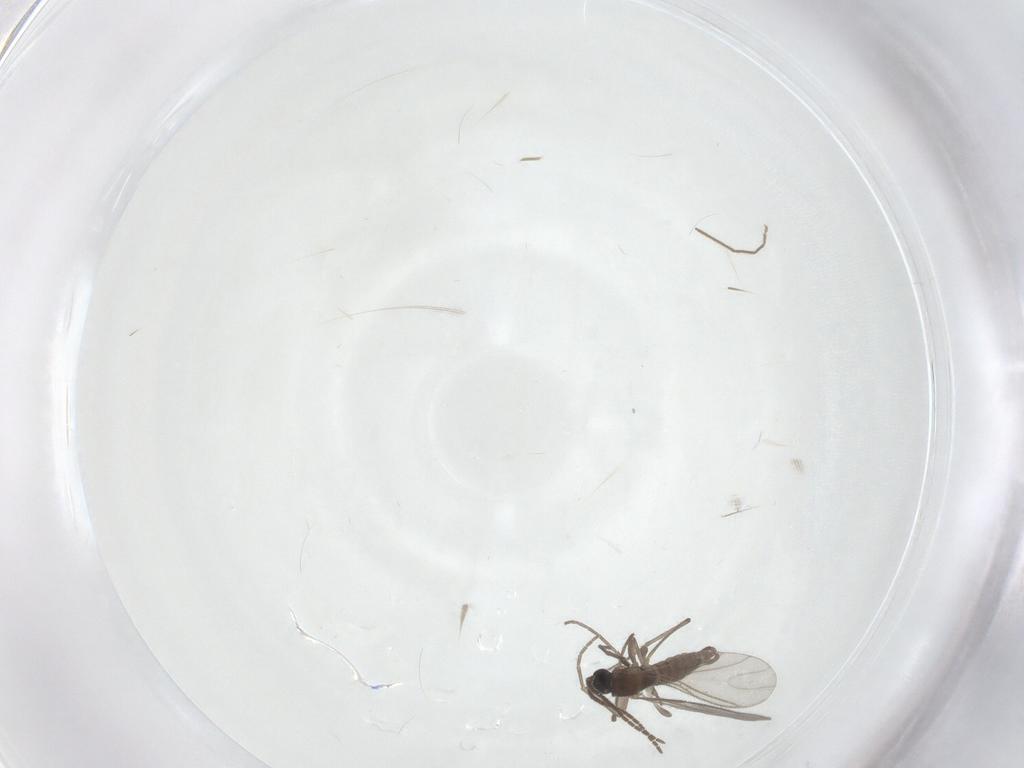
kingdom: Animalia
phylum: Arthropoda
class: Insecta
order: Diptera
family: Chironomidae
